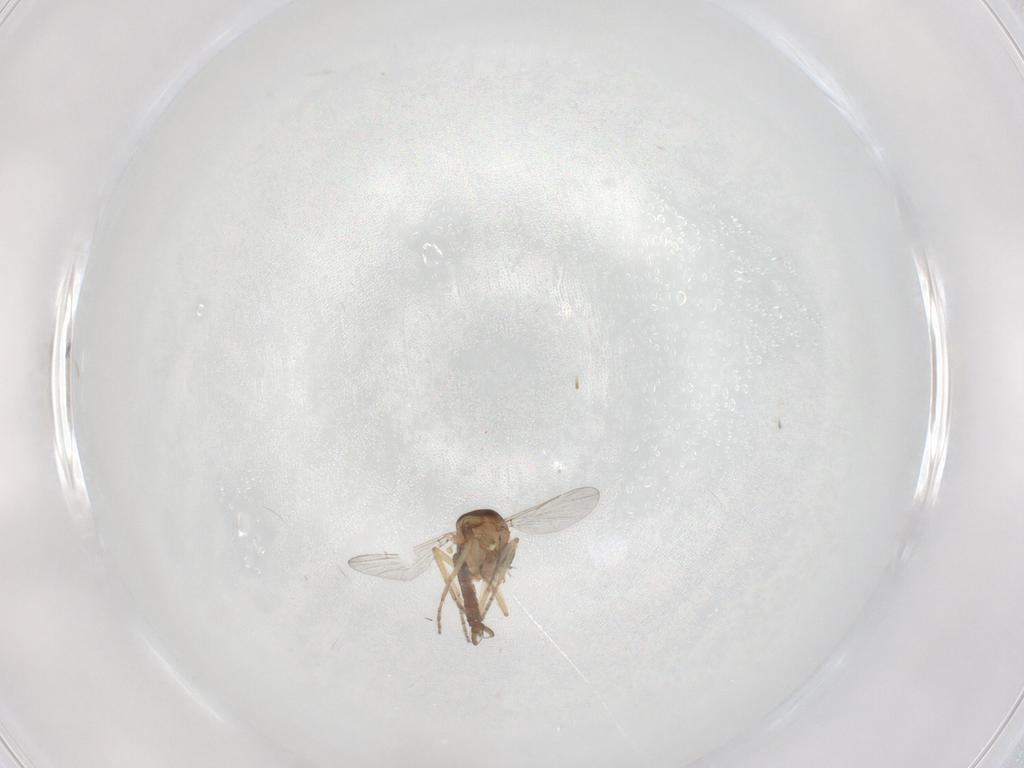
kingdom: Animalia
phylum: Arthropoda
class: Insecta
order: Diptera
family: Ceratopogonidae
